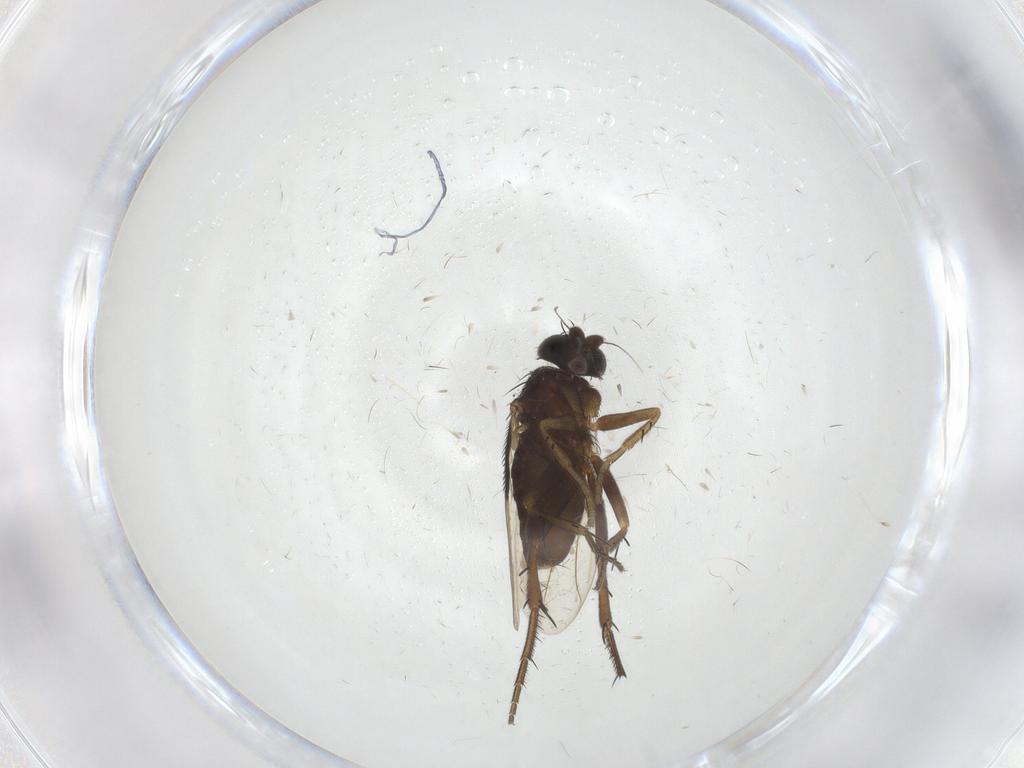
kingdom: Animalia
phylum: Arthropoda
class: Insecta
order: Diptera
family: Phoridae
